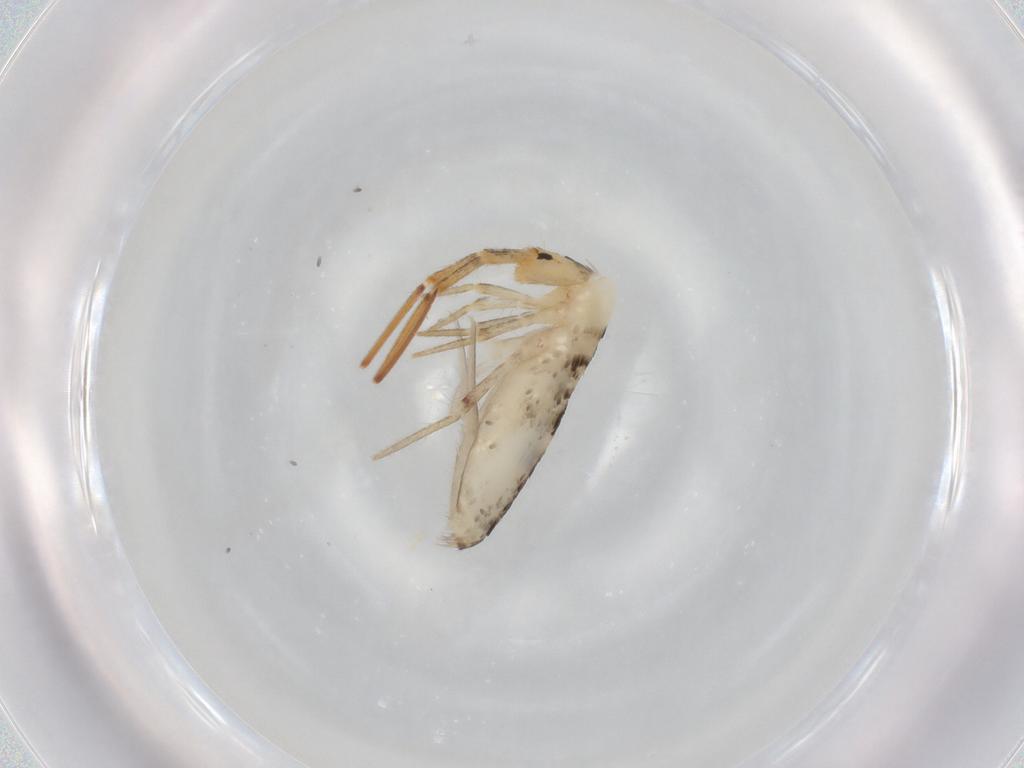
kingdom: Animalia
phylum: Arthropoda
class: Collembola
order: Poduromorpha
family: Hypogastruridae
